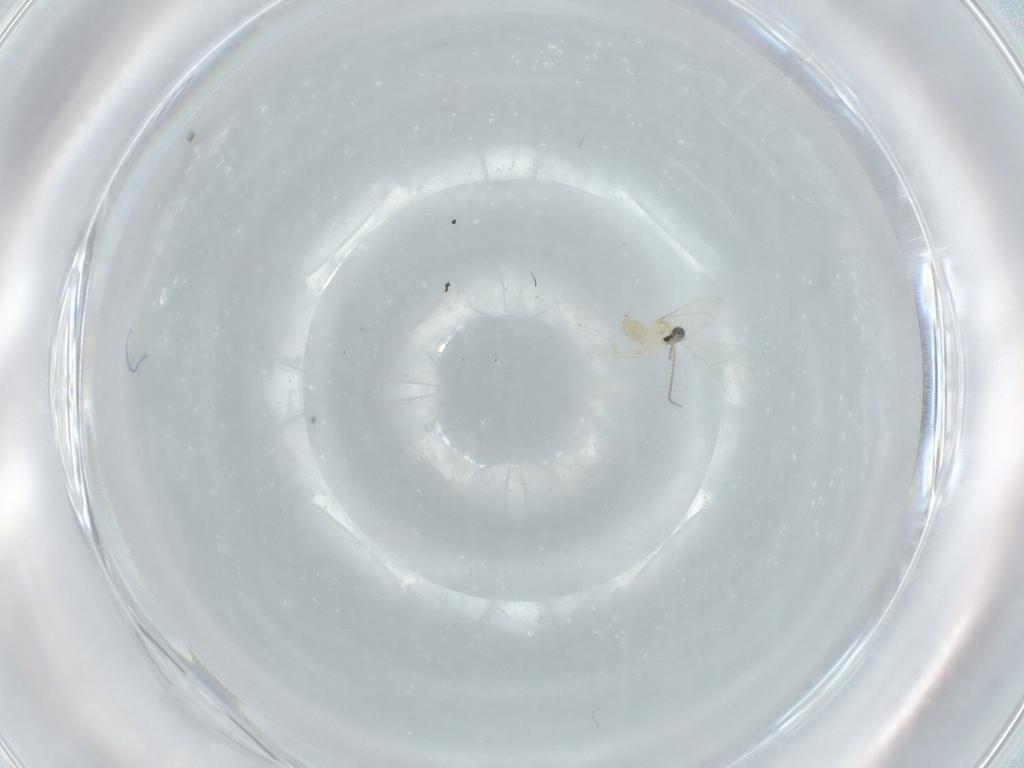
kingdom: Animalia
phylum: Arthropoda
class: Insecta
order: Diptera
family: Cecidomyiidae
